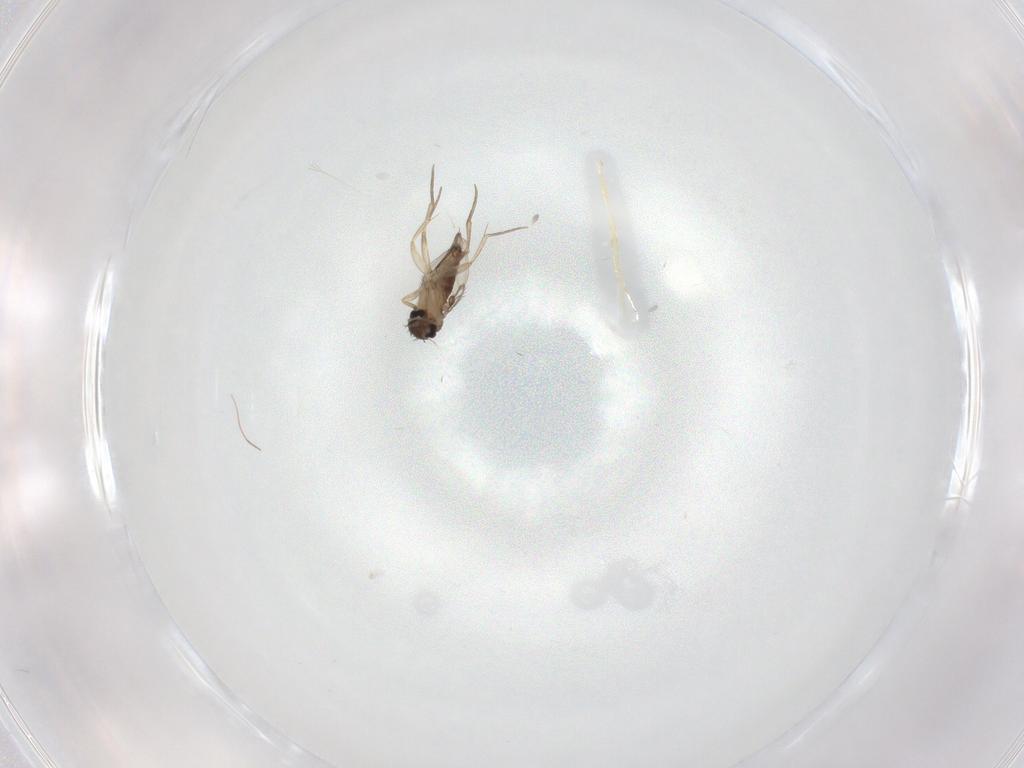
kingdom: Animalia
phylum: Arthropoda
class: Insecta
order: Diptera
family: Phoridae
